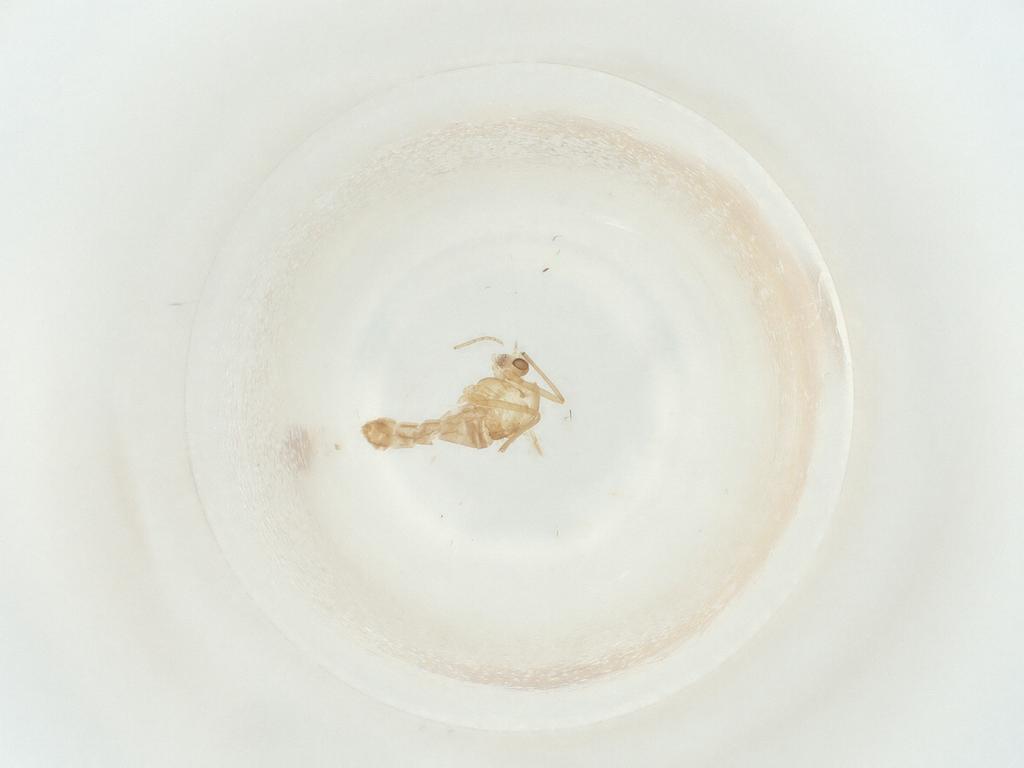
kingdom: Animalia
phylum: Arthropoda
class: Insecta
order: Diptera
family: Chironomidae
